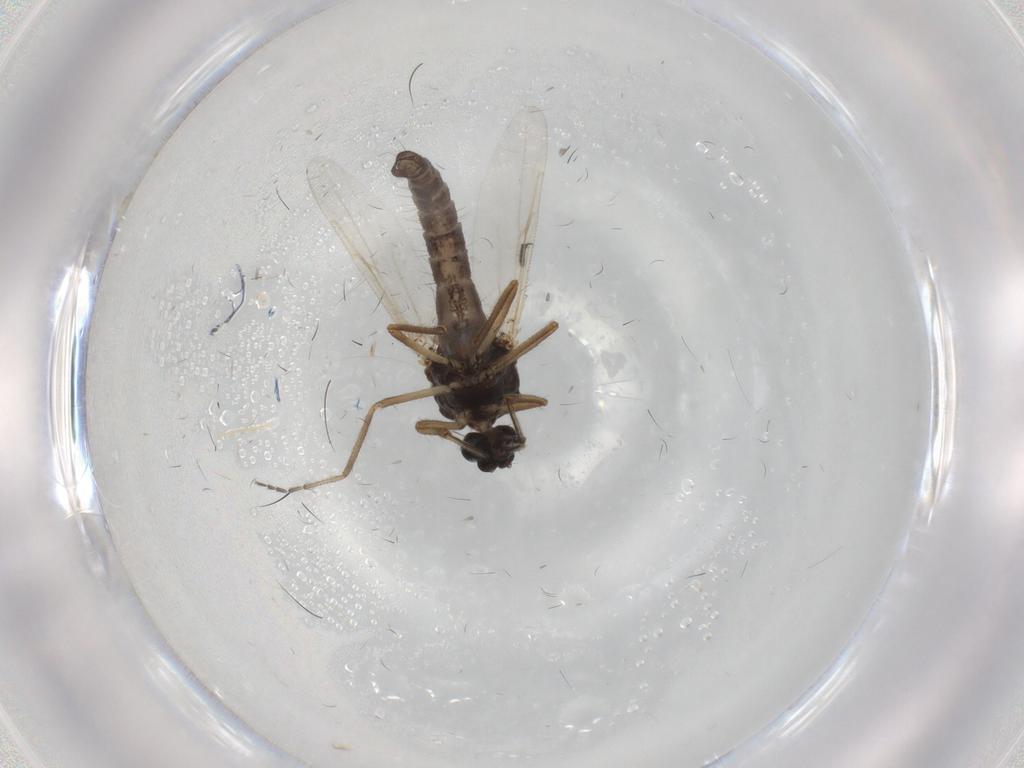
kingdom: Animalia
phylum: Arthropoda
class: Insecta
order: Diptera
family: Ceratopogonidae
